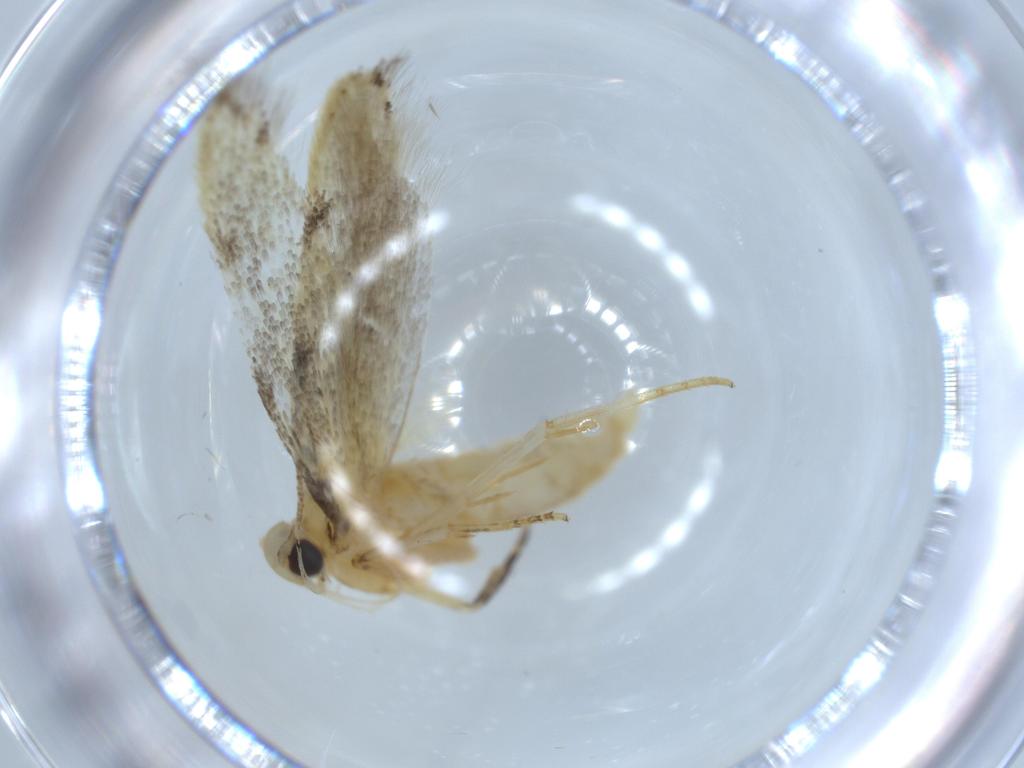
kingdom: Animalia
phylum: Arthropoda
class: Insecta
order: Lepidoptera
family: Autostichidae
